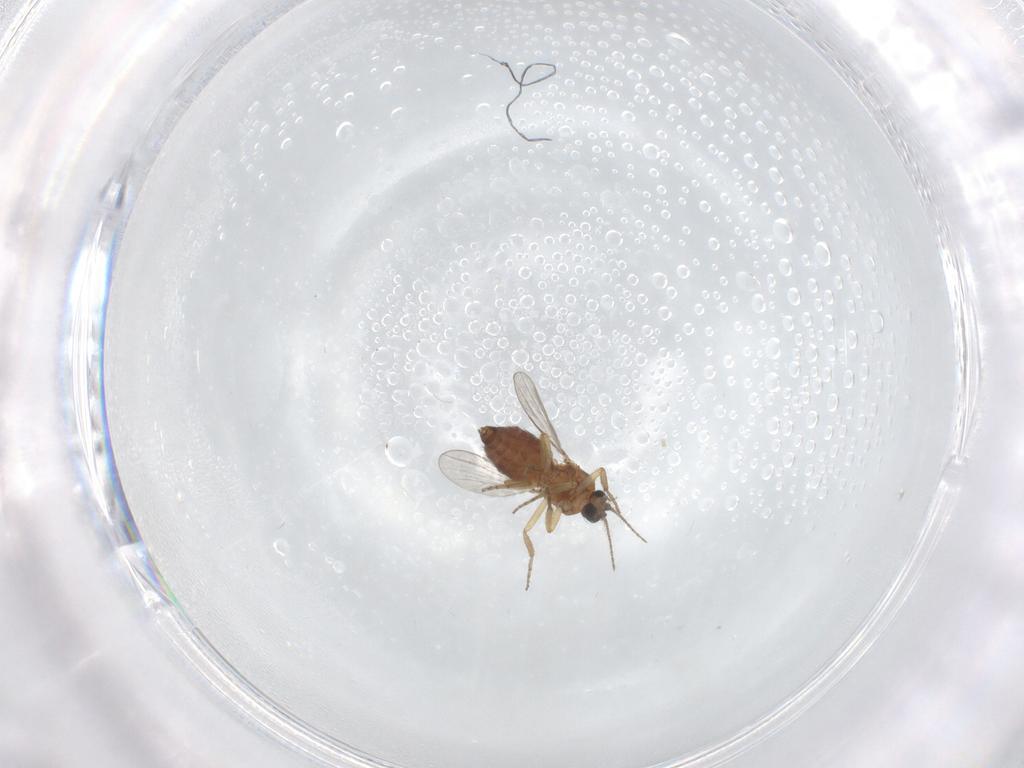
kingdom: Animalia
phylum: Arthropoda
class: Insecta
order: Diptera
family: Ceratopogonidae
